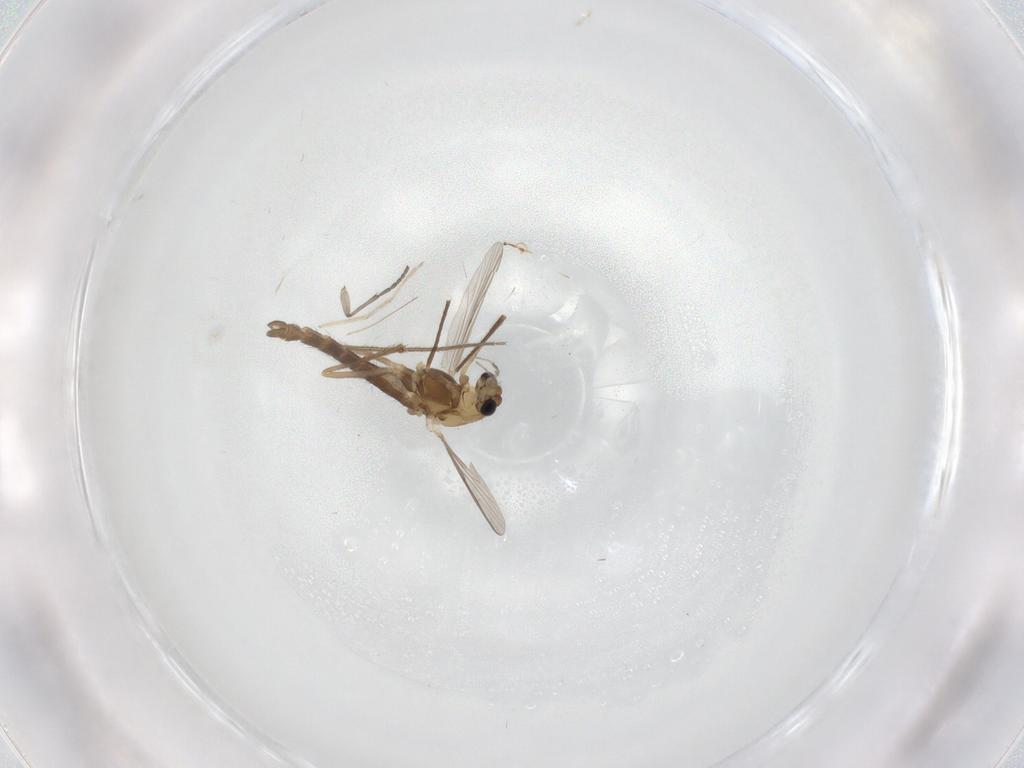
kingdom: Animalia
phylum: Arthropoda
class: Insecta
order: Diptera
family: Chironomidae
